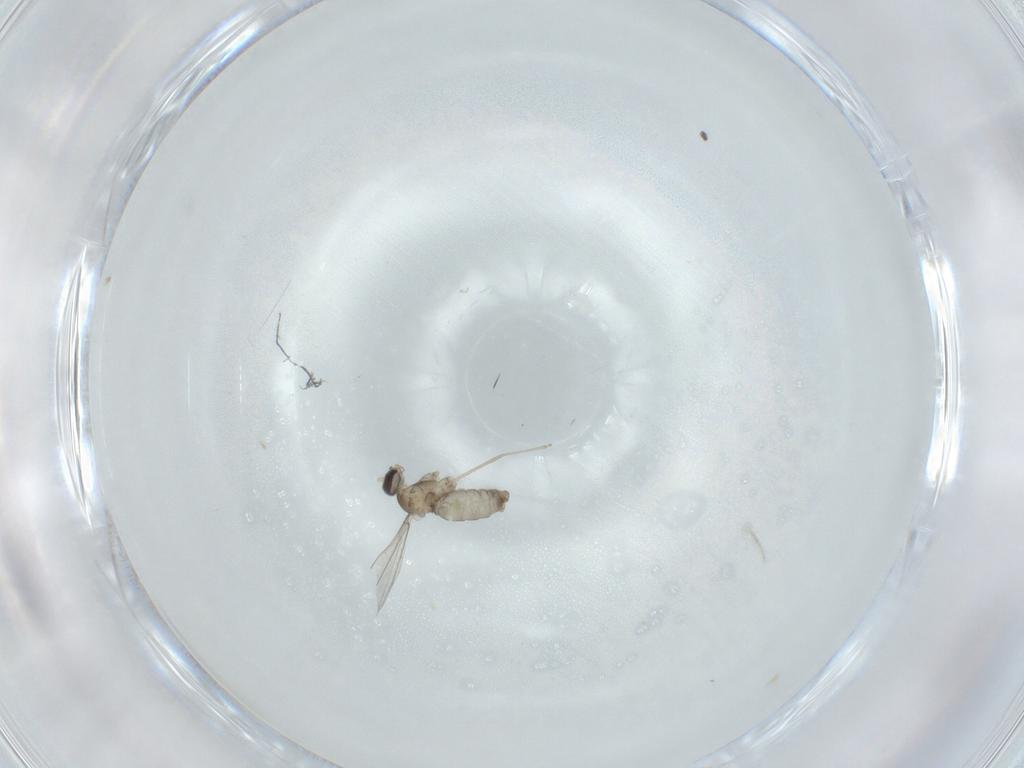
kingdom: Animalia
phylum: Arthropoda
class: Insecta
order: Diptera
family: Cecidomyiidae
